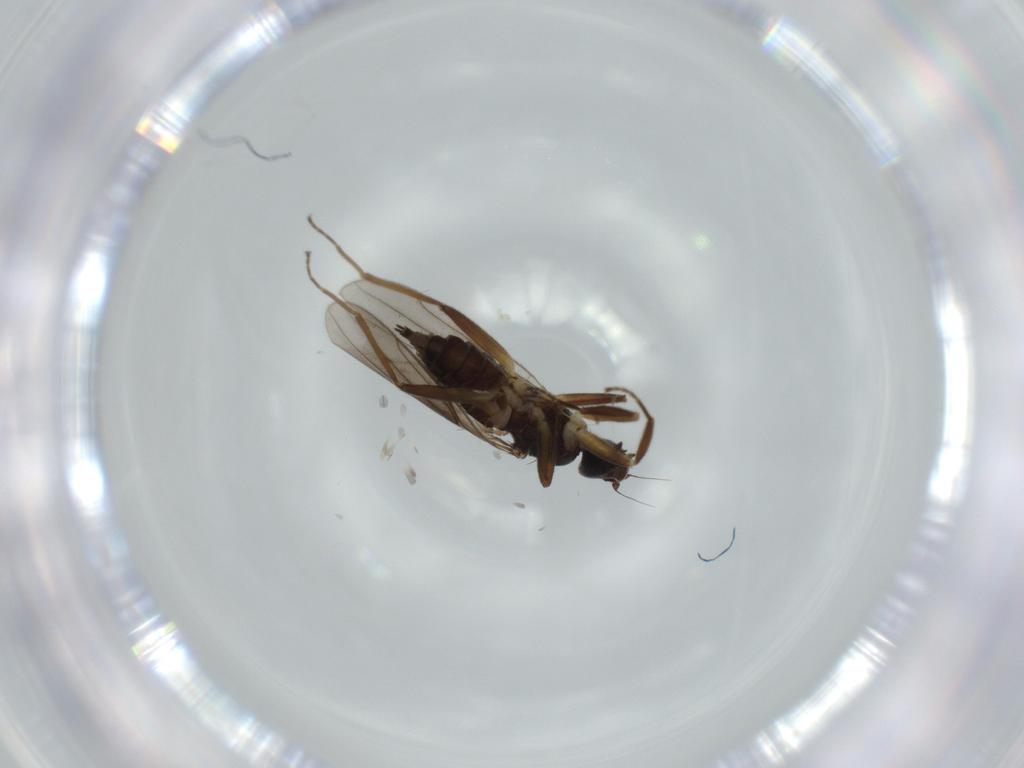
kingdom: Animalia
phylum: Arthropoda
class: Insecta
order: Diptera
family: Hybotidae
